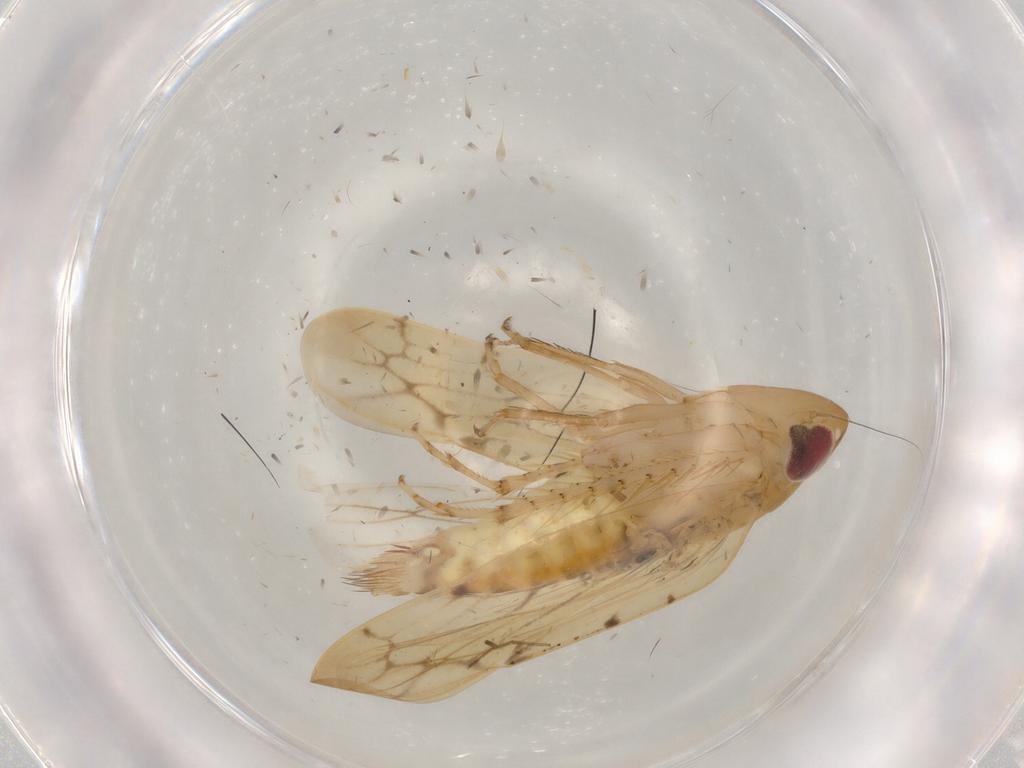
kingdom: Animalia
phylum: Arthropoda
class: Insecta
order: Hemiptera
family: Cicadellidae
